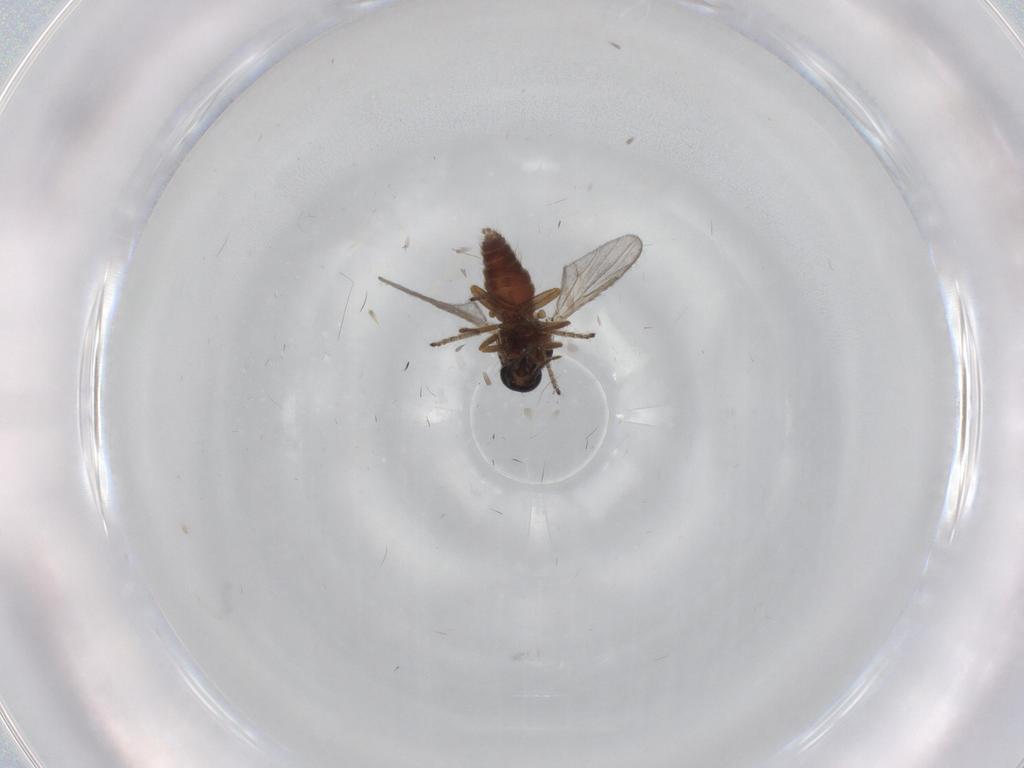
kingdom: Animalia
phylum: Arthropoda
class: Insecta
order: Diptera
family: Ceratopogonidae
